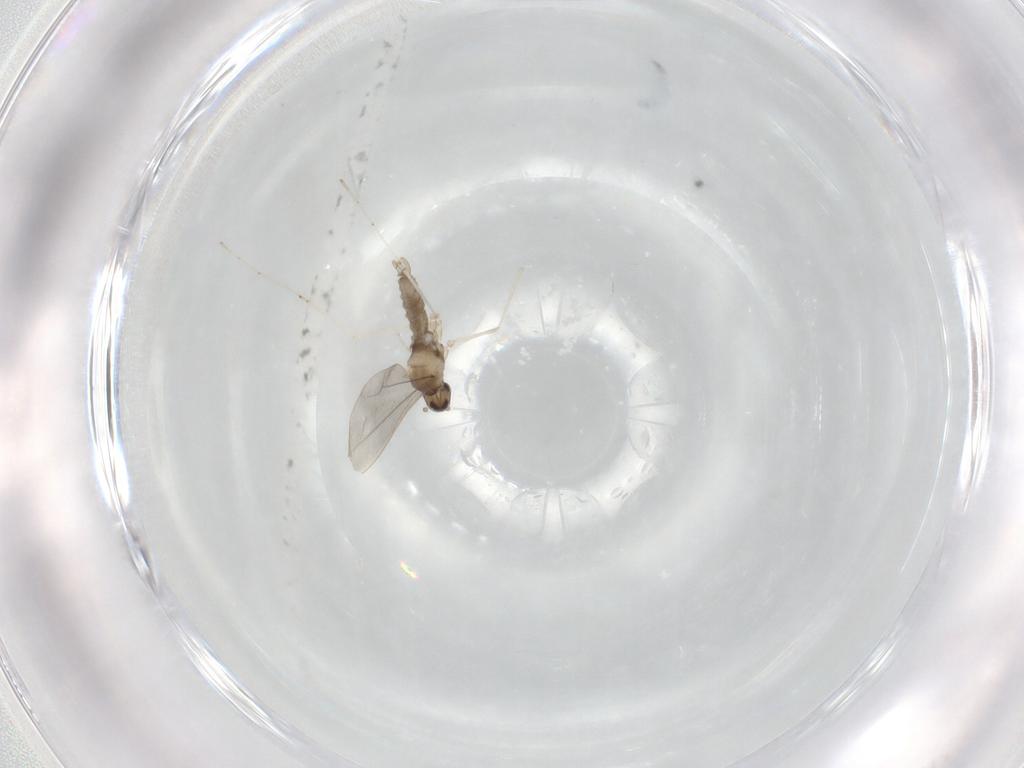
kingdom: Animalia
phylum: Arthropoda
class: Insecta
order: Diptera
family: Cecidomyiidae
